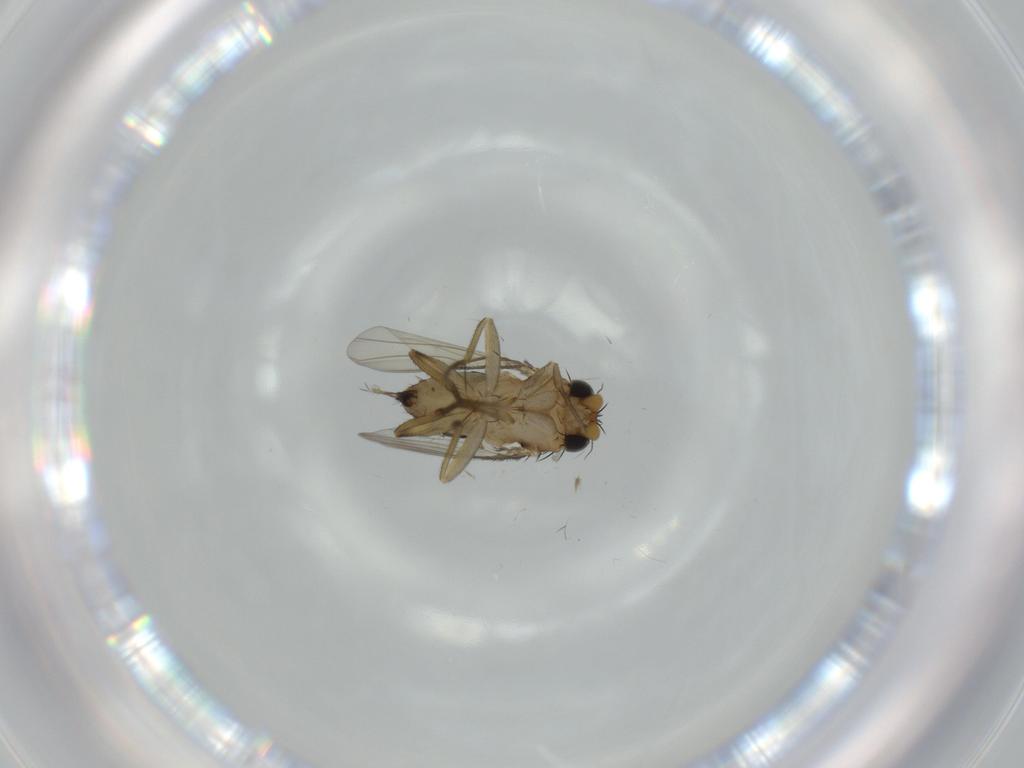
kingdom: Animalia
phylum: Arthropoda
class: Insecta
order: Diptera
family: Sciaridae
